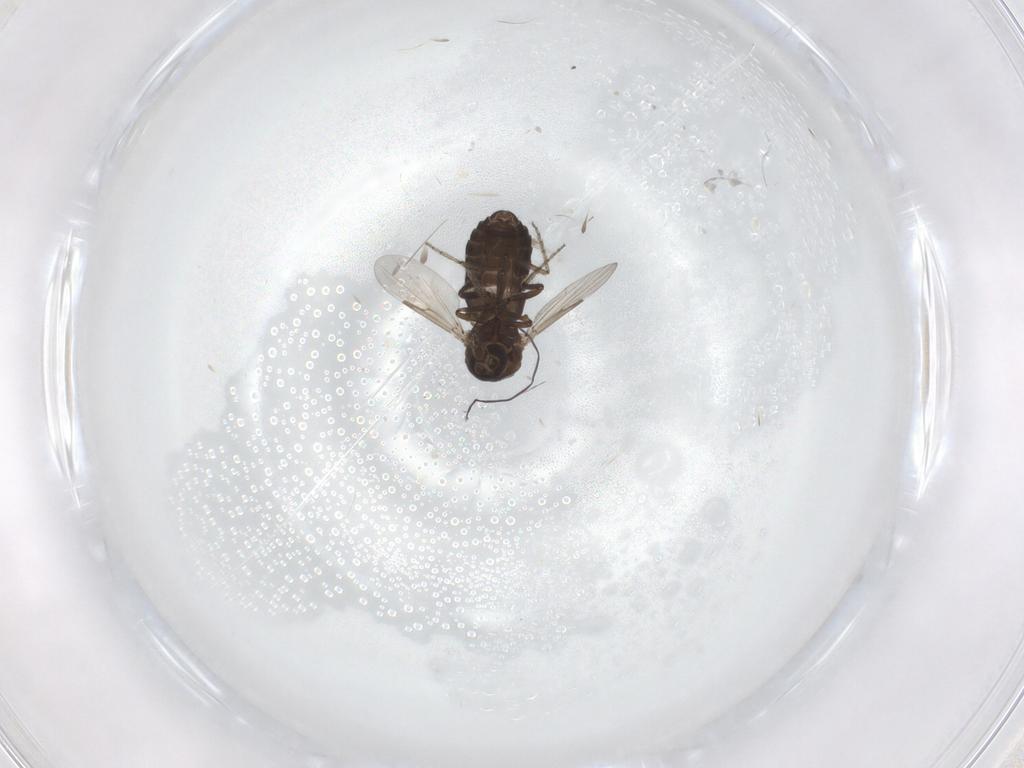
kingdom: Animalia
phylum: Arthropoda
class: Insecta
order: Diptera
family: Ceratopogonidae
